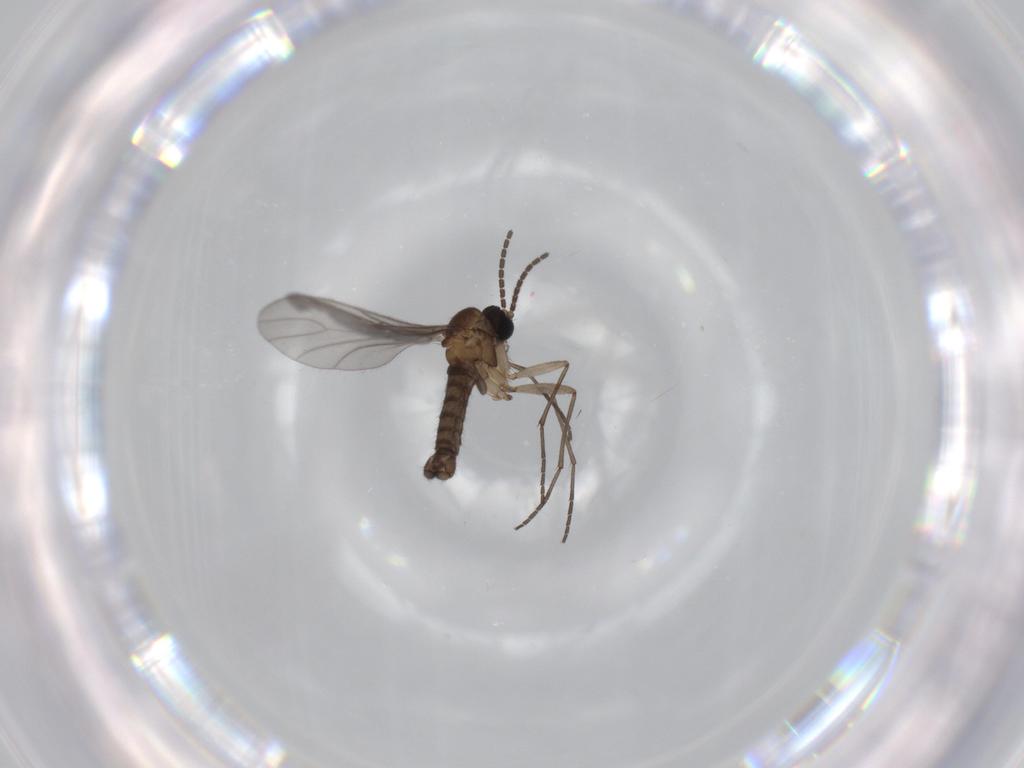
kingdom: Animalia
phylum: Arthropoda
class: Insecta
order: Diptera
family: Sciaridae
